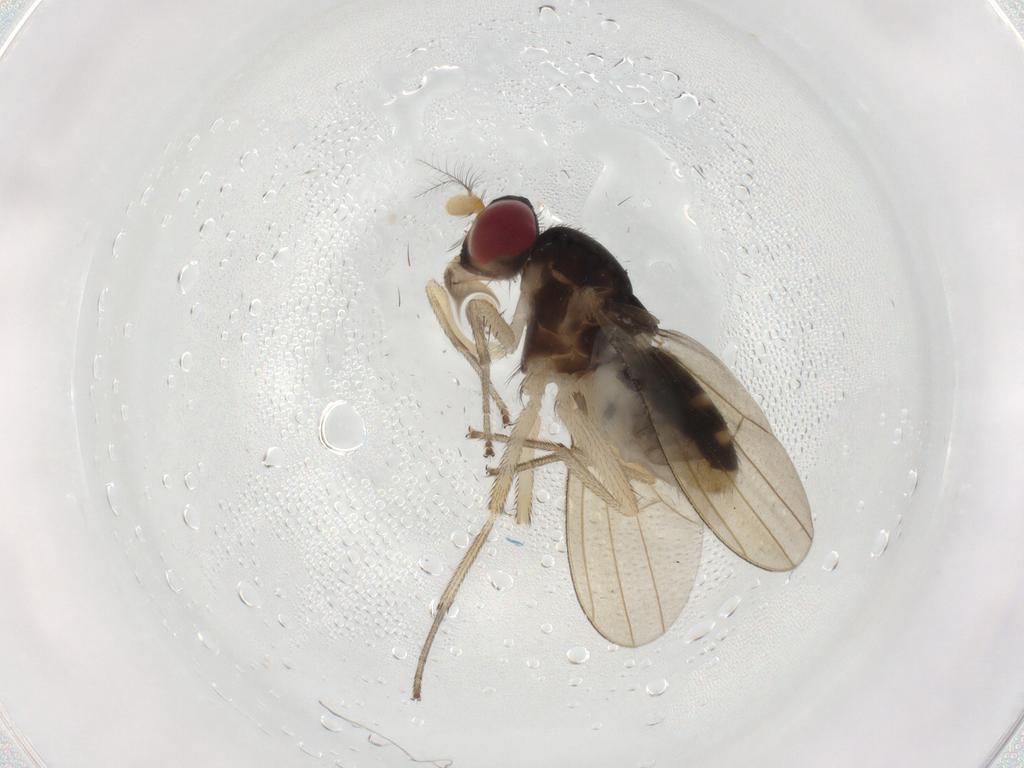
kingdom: Animalia
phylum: Arthropoda
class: Insecta
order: Diptera
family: Lauxaniidae
